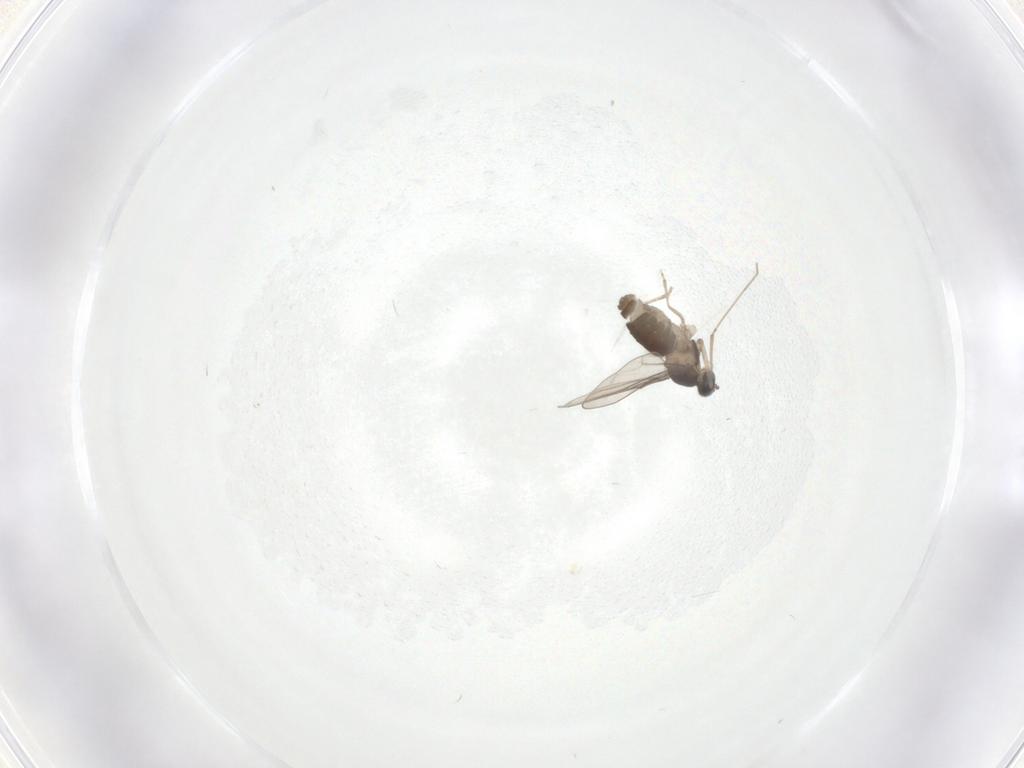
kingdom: Animalia
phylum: Arthropoda
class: Insecta
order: Diptera
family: Cecidomyiidae
